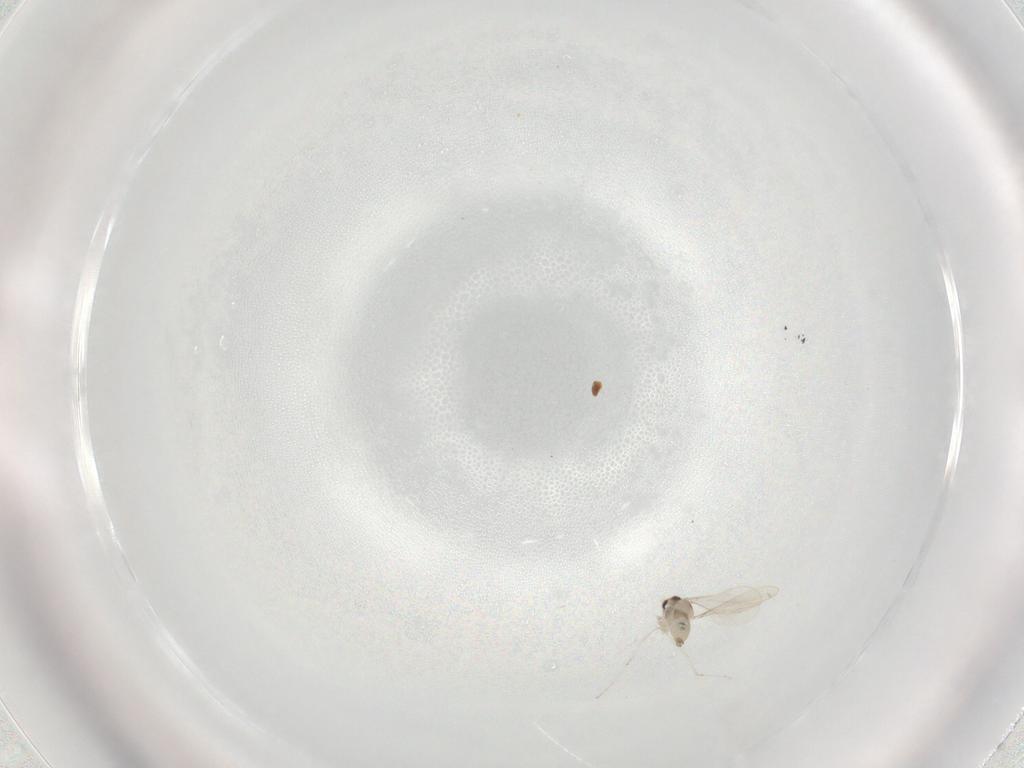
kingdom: Animalia
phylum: Arthropoda
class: Insecta
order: Diptera
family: Cecidomyiidae
